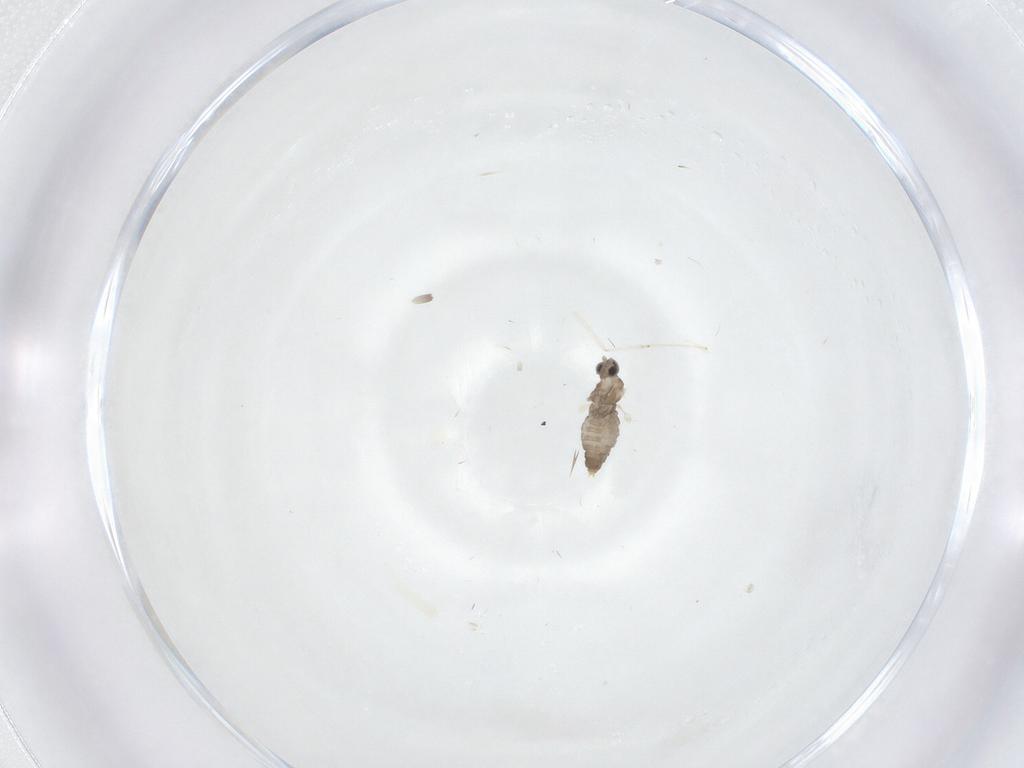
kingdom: Animalia
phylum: Arthropoda
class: Insecta
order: Diptera
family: Cecidomyiidae
